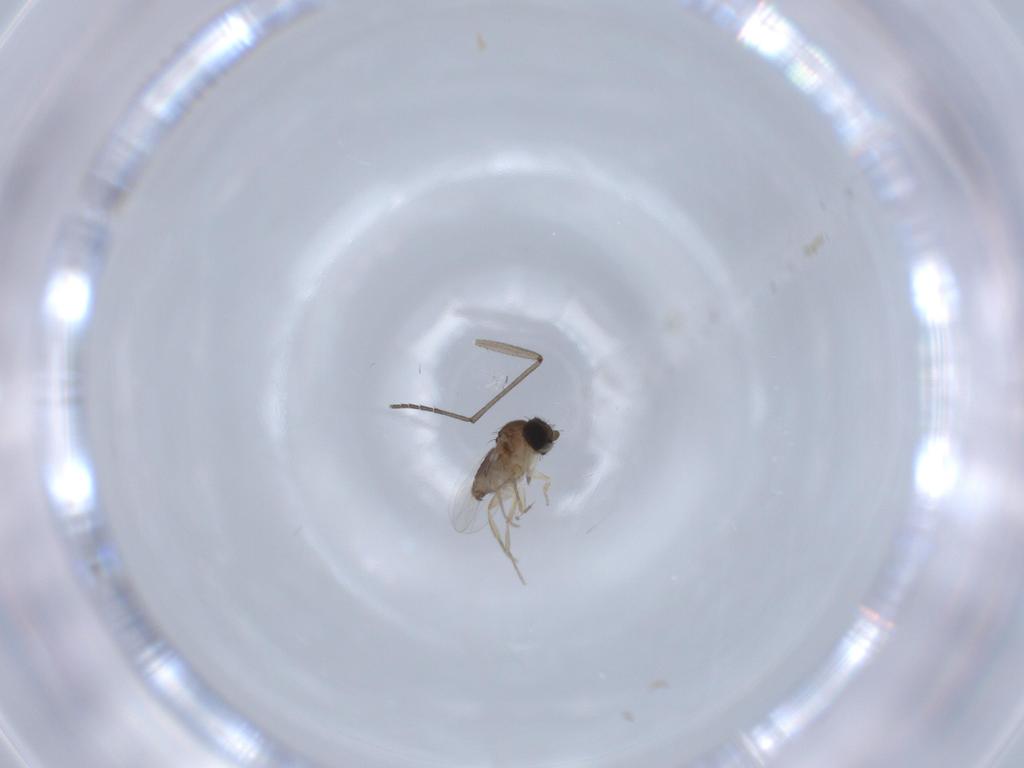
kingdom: Animalia
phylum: Arthropoda
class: Insecta
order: Diptera
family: Phoridae
